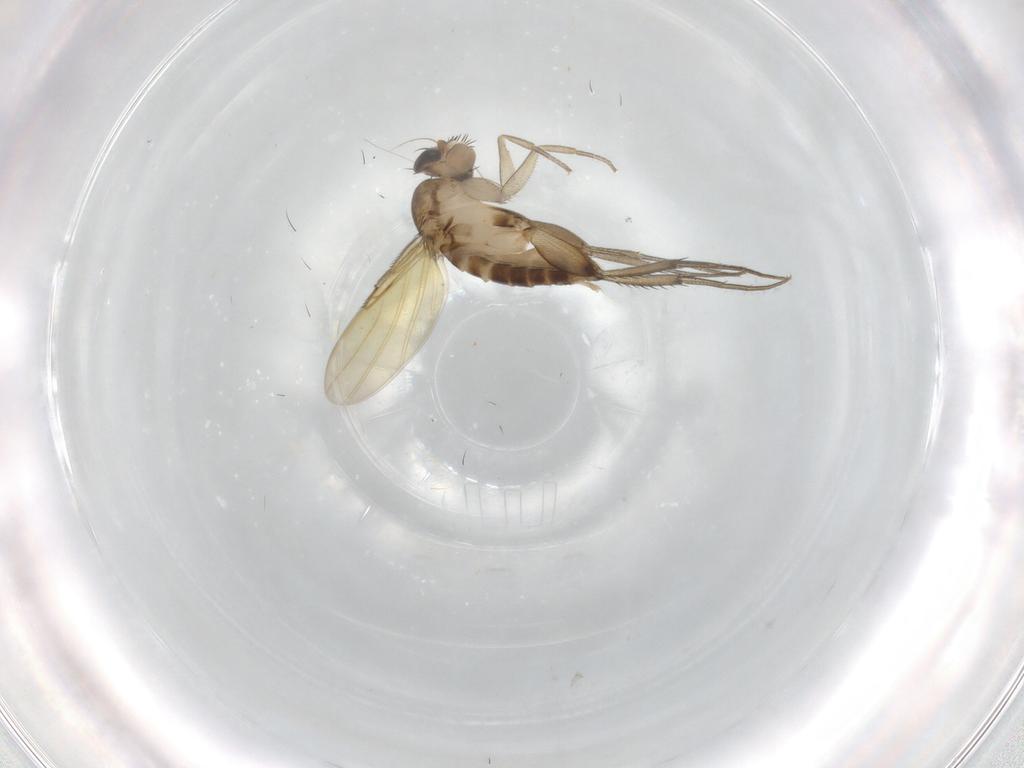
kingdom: Animalia
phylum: Arthropoda
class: Insecta
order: Diptera
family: Phoridae
